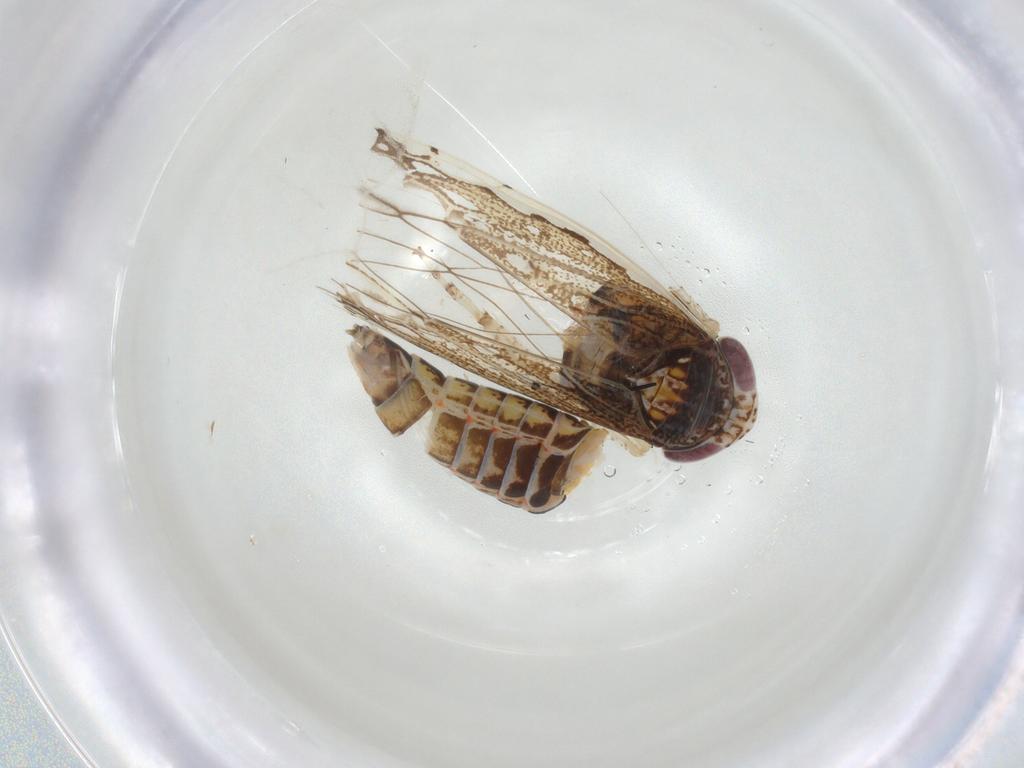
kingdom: Animalia
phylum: Arthropoda
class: Insecta
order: Hemiptera
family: Cicadellidae
